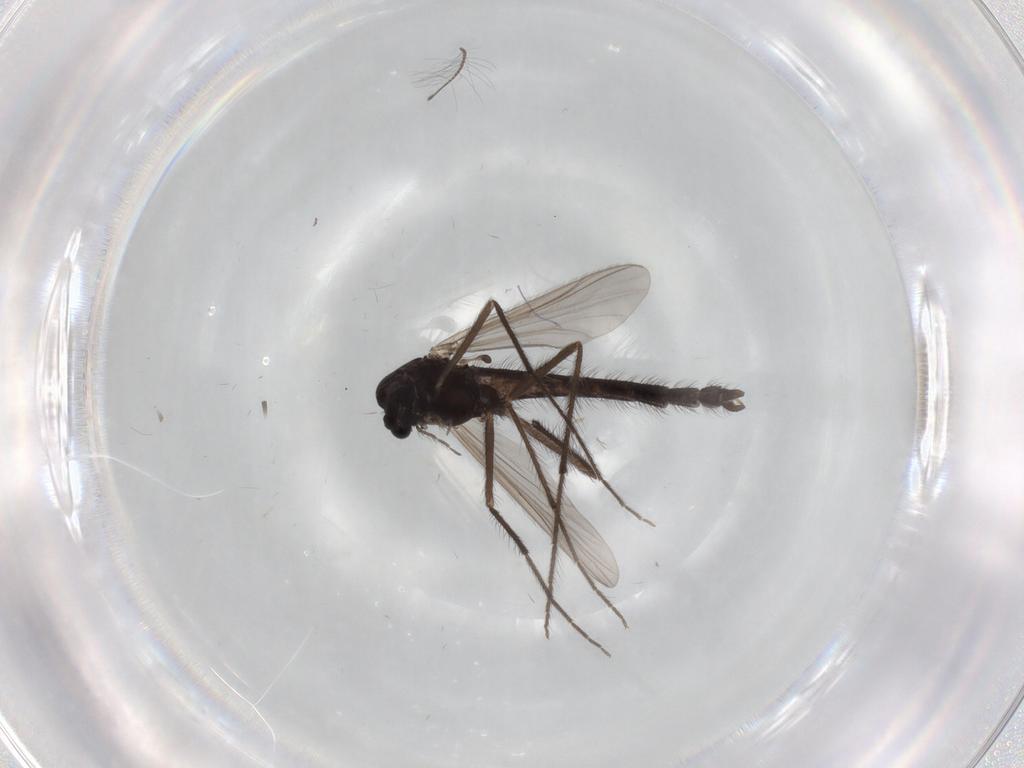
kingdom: Animalia
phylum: Arthropoda
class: Insecta
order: Diptera
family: Chironomidae
